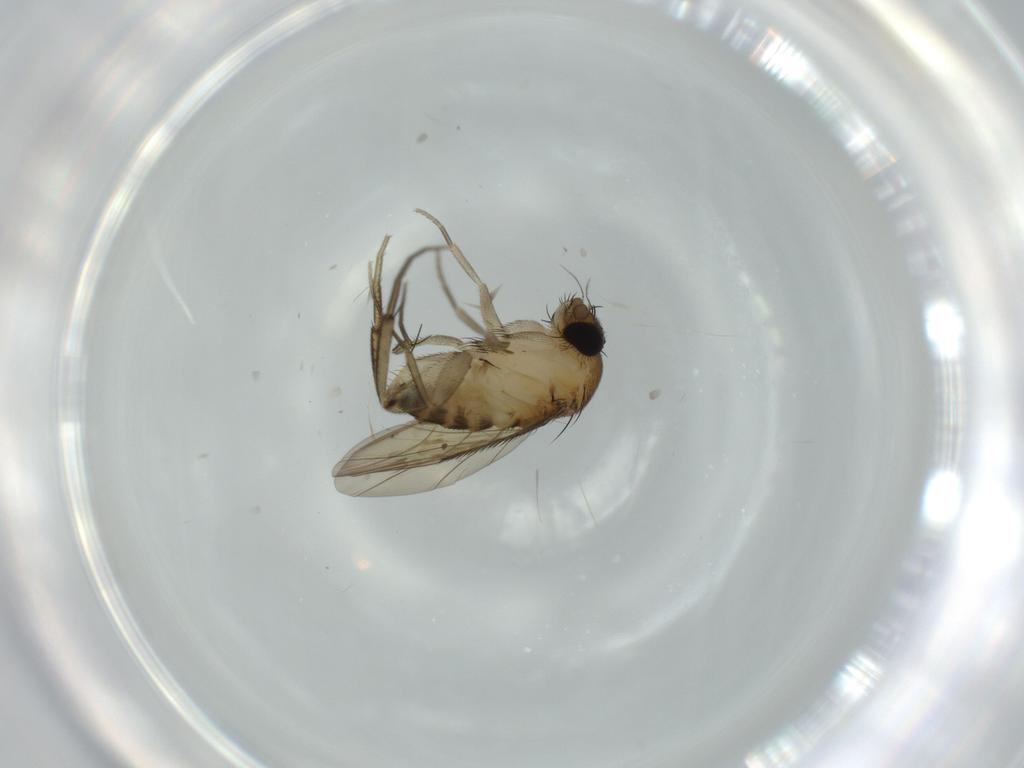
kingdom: Animalia
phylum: Arthropoda
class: Insecta
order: Diptera
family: Phoridae
